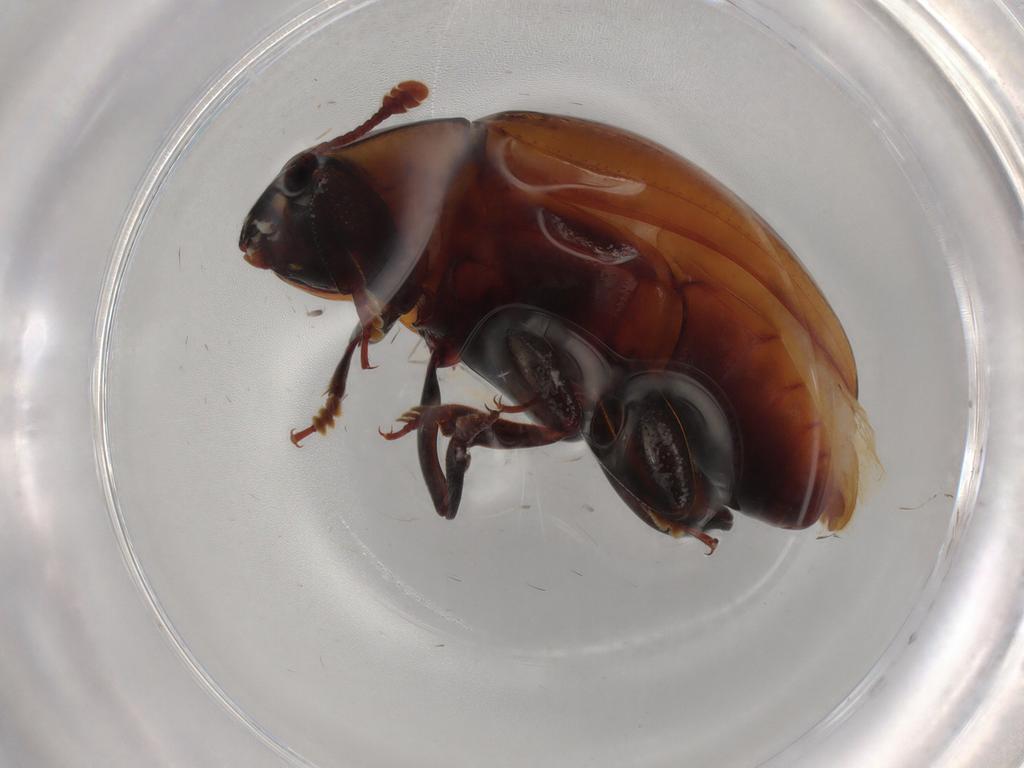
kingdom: Animalia
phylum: Arthropoda
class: Insecta
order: Coleoptera
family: Zopheridae
